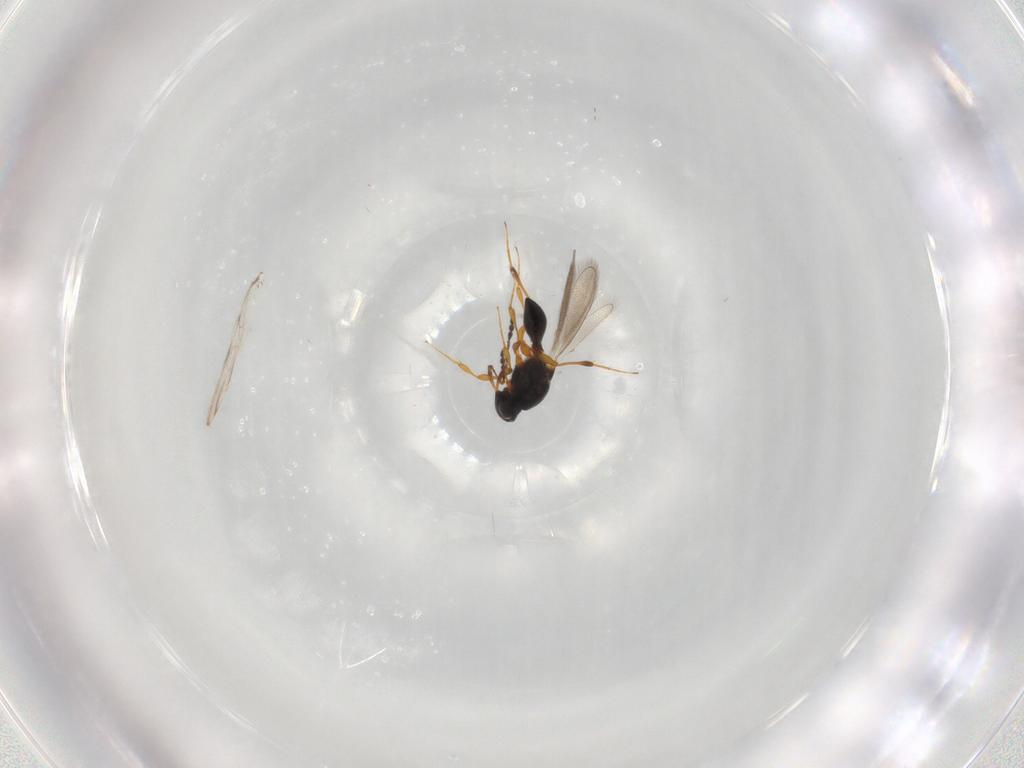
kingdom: Animalia
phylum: Arthropoda
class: Insecta
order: Hymenoptera
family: Platygastridae
